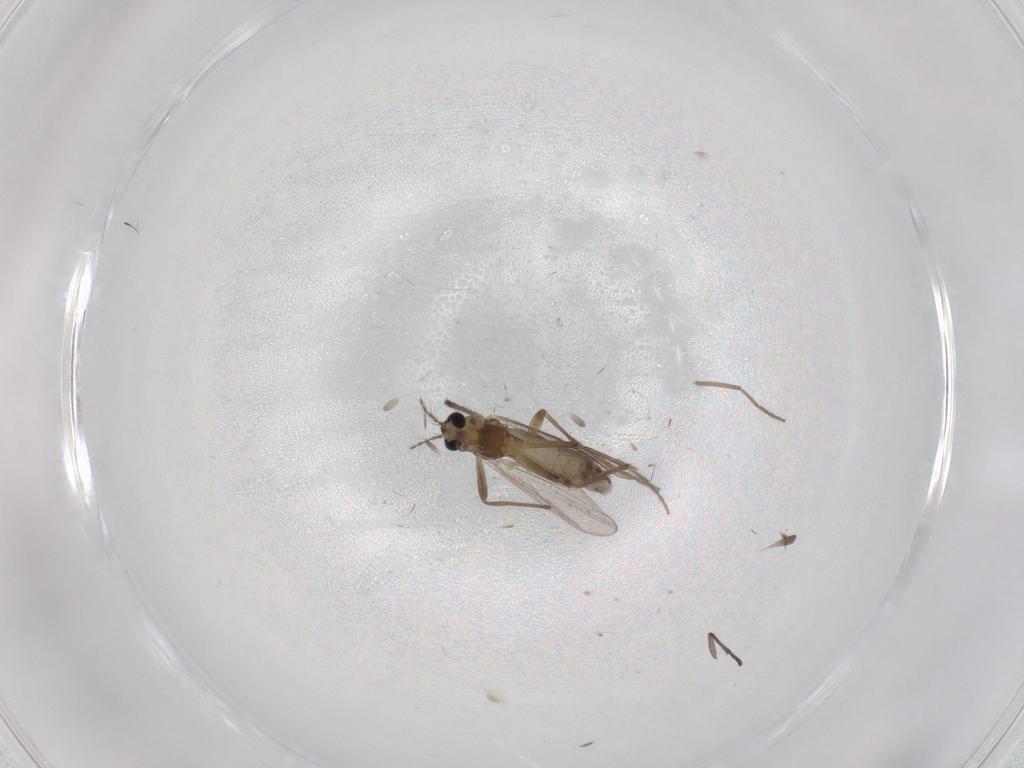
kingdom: Animalia
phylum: Arthropoda
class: Insecta
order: Diptera
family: Chironomidae
